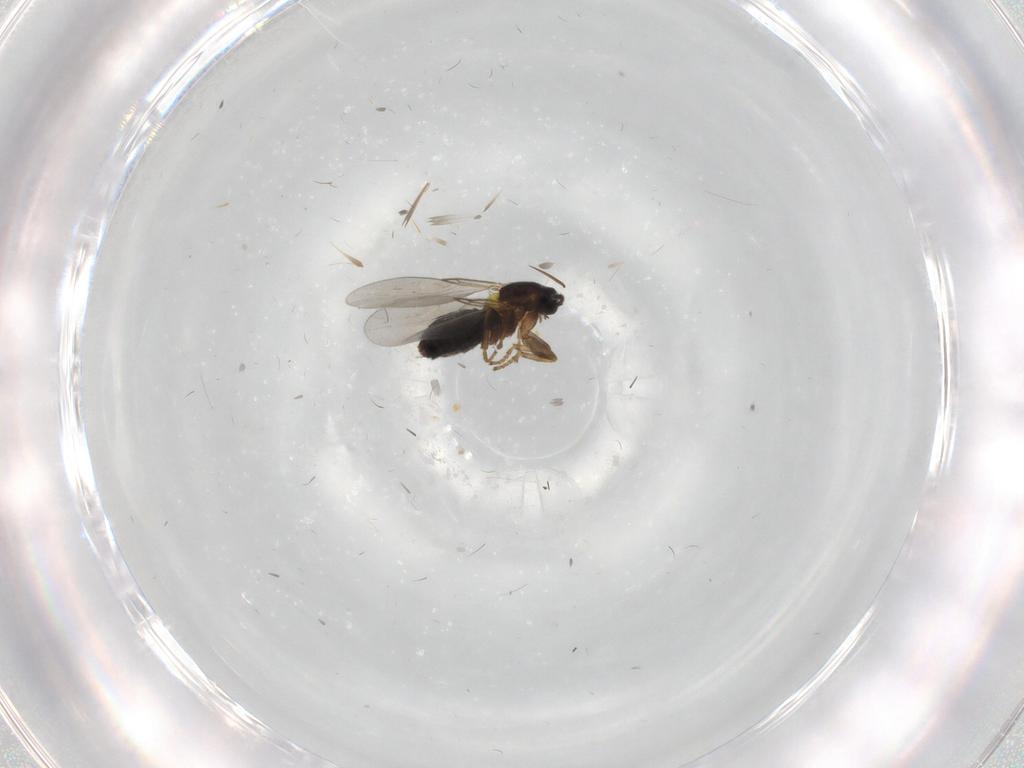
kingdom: Animalia
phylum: Arthropoda
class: Insecta
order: Diptera
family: Scatopsidae
